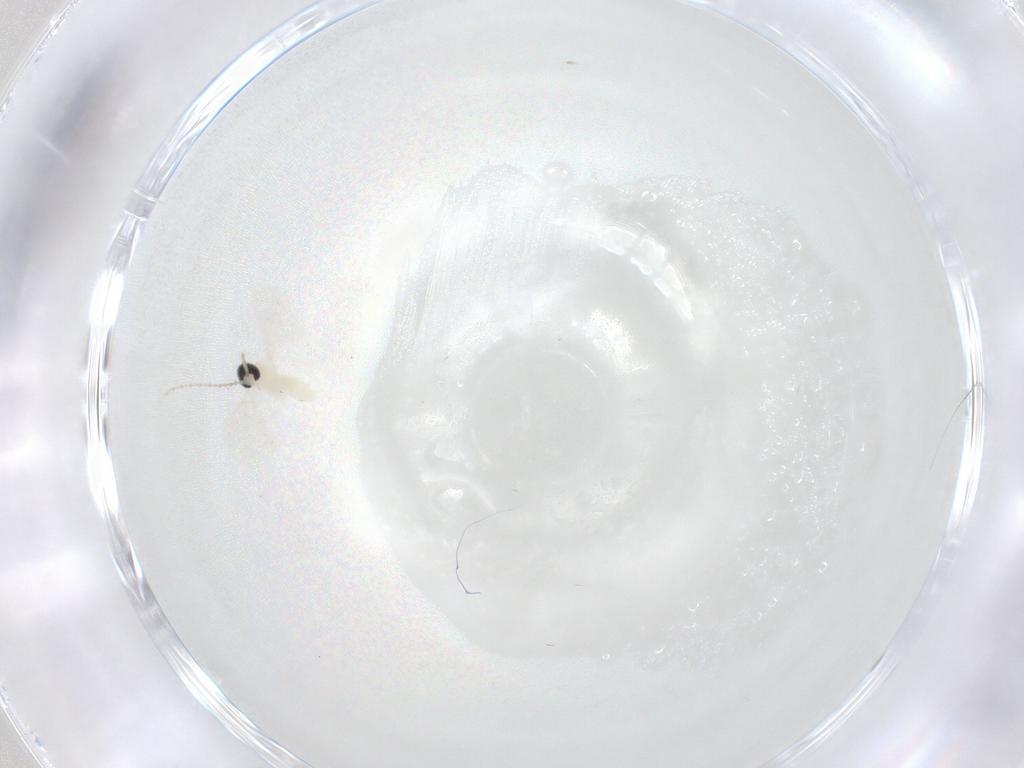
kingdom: Animalia
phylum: Arthropoda
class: Insecta
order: Diptera
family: Cecidomyiidae
